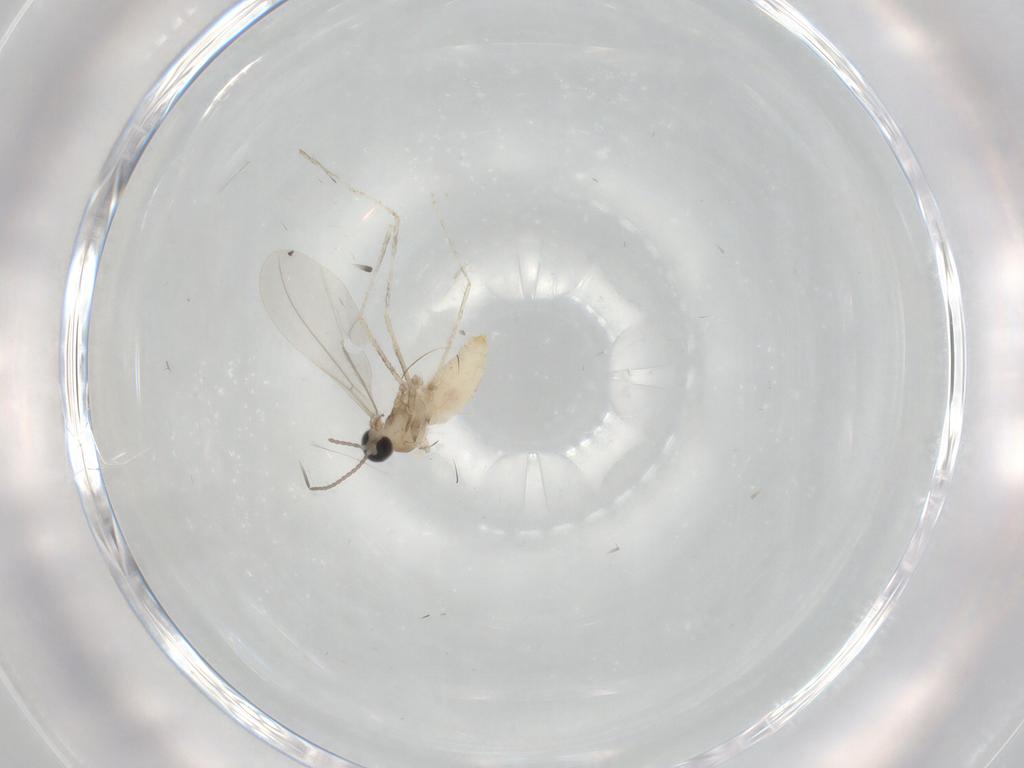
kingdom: Animalia
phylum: Arthropoda
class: Insecta
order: Diptera
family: Cecidomyiidae
